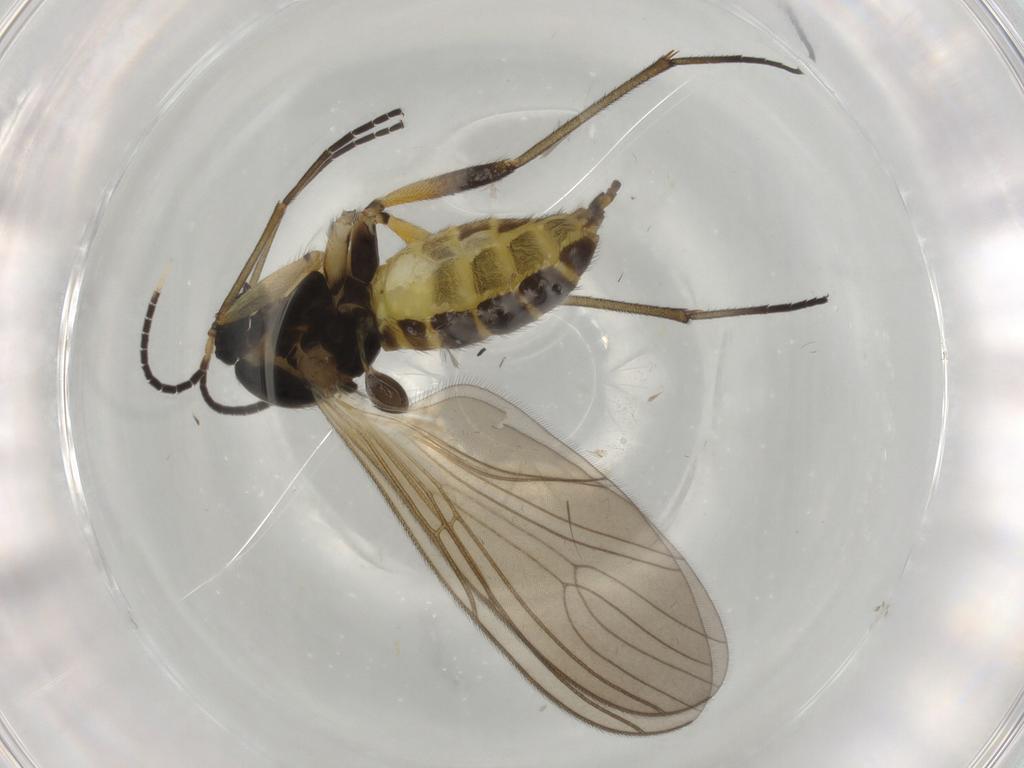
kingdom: Animalia
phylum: Arthropoda
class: Insecta
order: Diptera
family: Sciaridae
